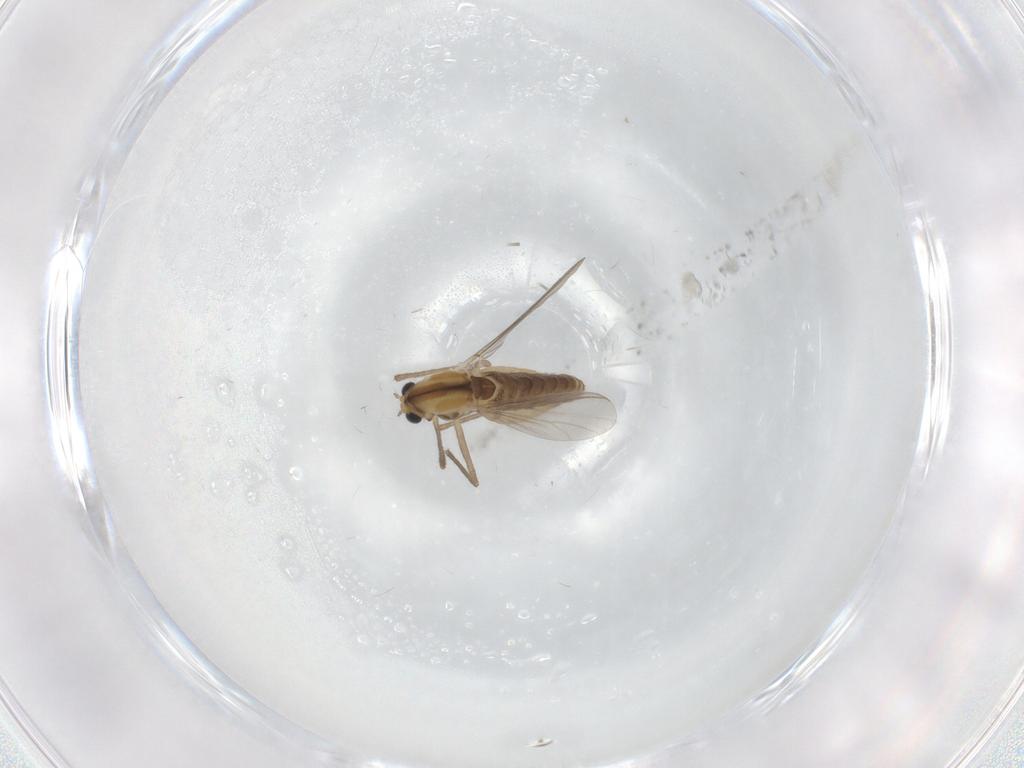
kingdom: Animalia
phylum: Arthropoda
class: Insecta
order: Diptera
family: Chironomidae
